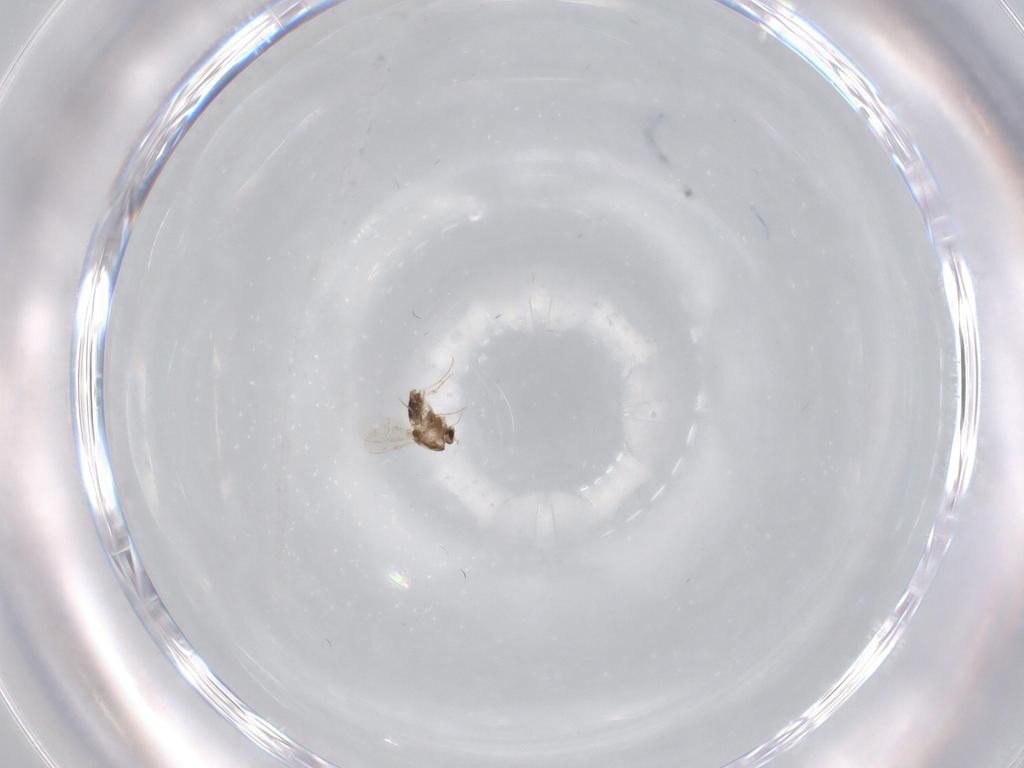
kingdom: Animalia
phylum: Arthropoda
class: Insecta
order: Diptera
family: Chironomidae
